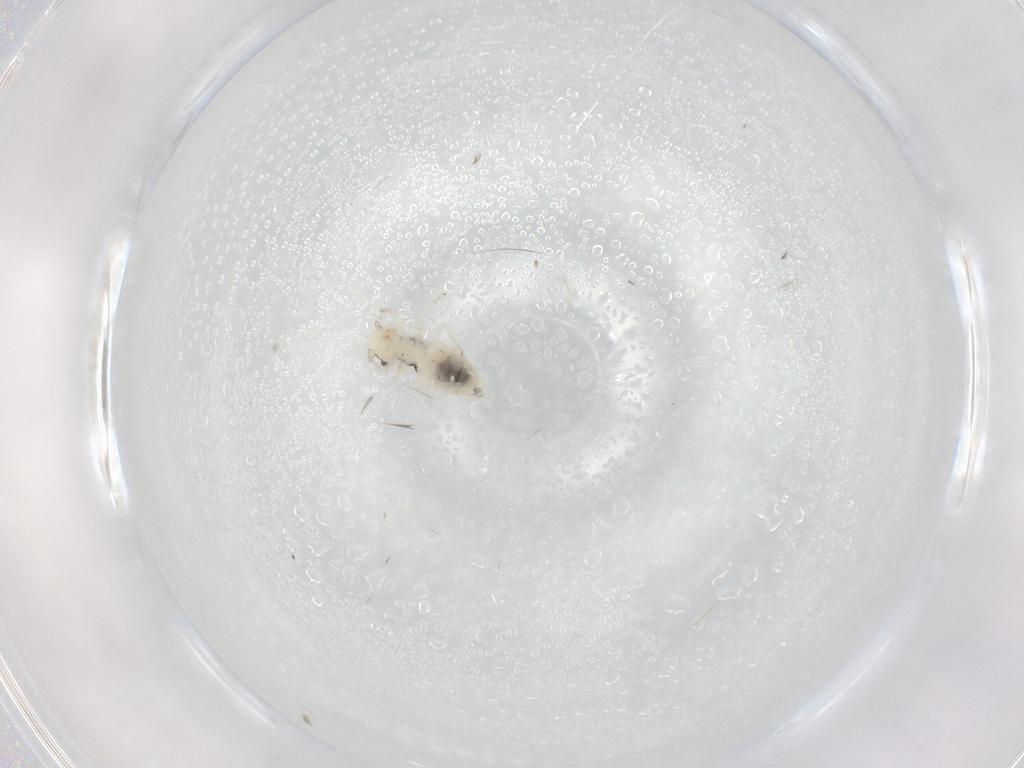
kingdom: Animalia
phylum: Arthropoda
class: Insecta
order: Psocodea
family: Caeciliusidae
